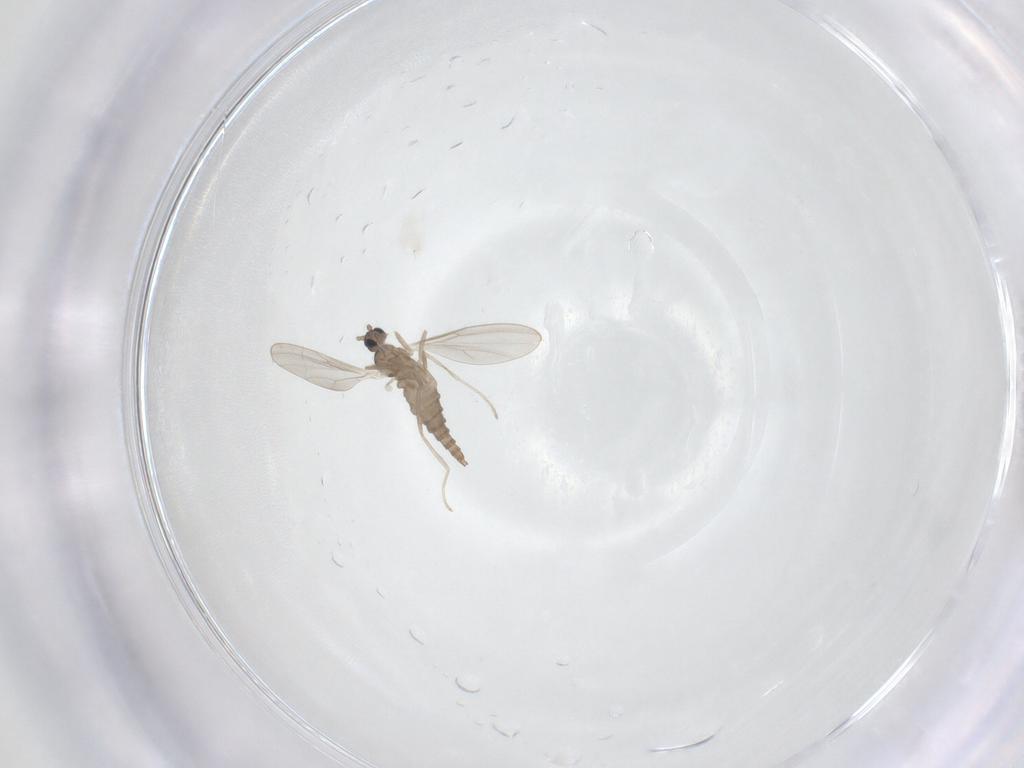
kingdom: Animalia
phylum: Arthropoda
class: Insecta
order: Diptera
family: Cecidomyiidae
